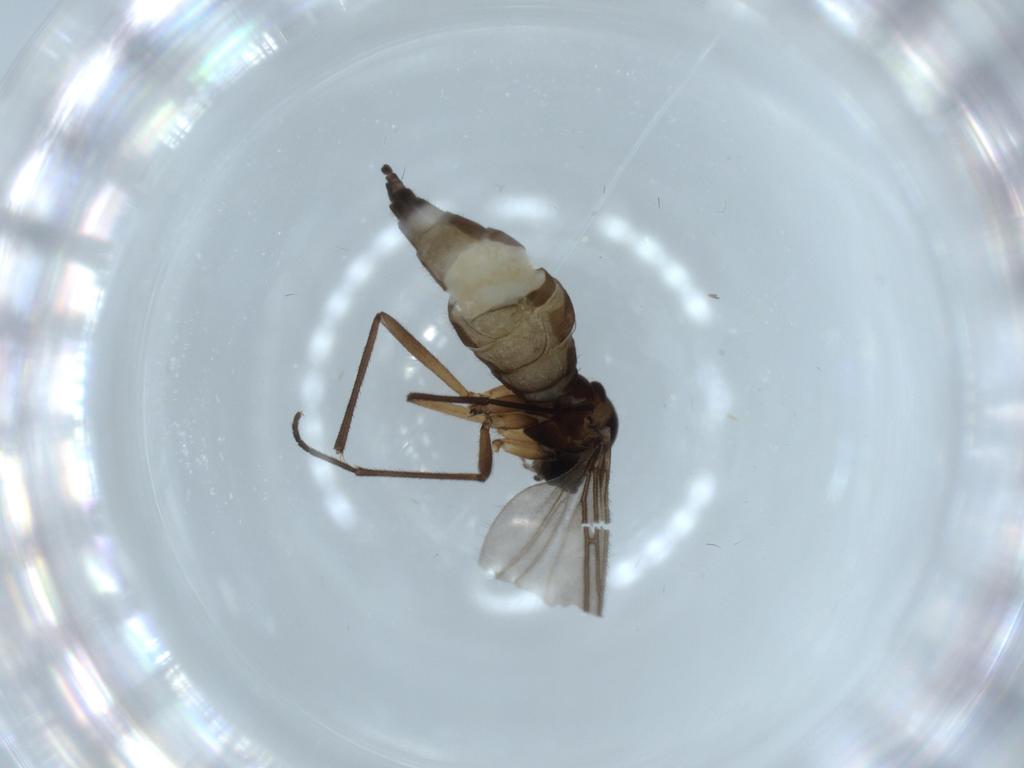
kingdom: Animalia
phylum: Arthropoda
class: Insecta
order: Diptera
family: Sciaridae
